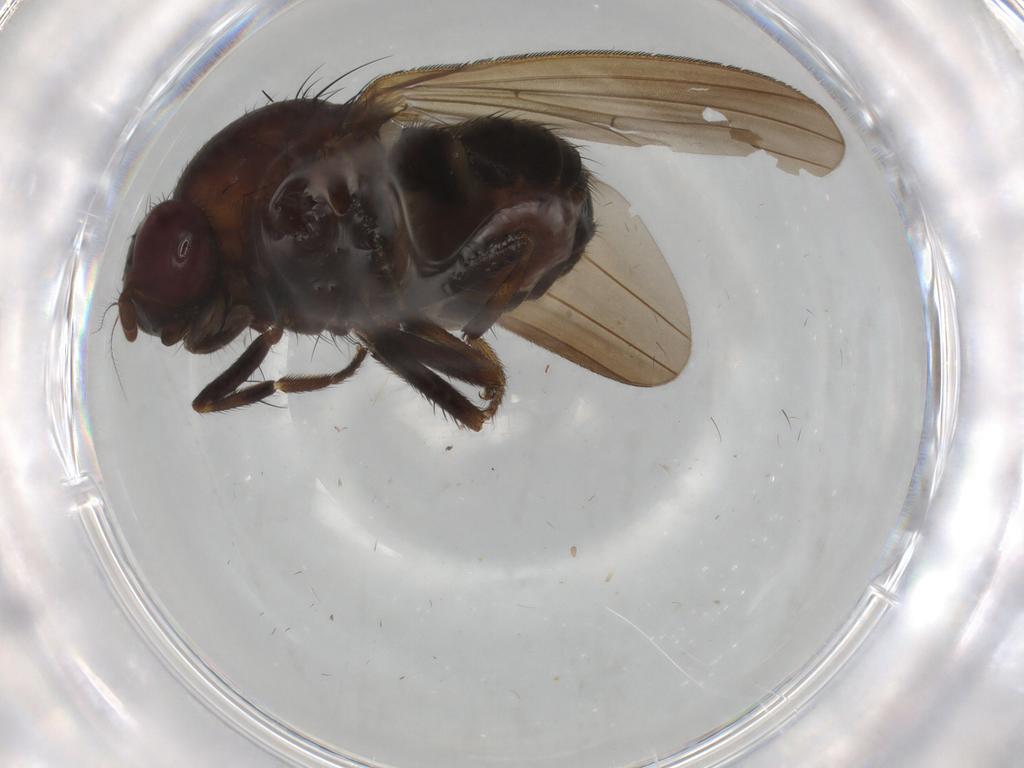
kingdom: Animalia
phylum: Arthropoda
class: Insecta
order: Diptera
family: Cecidomyiidae
